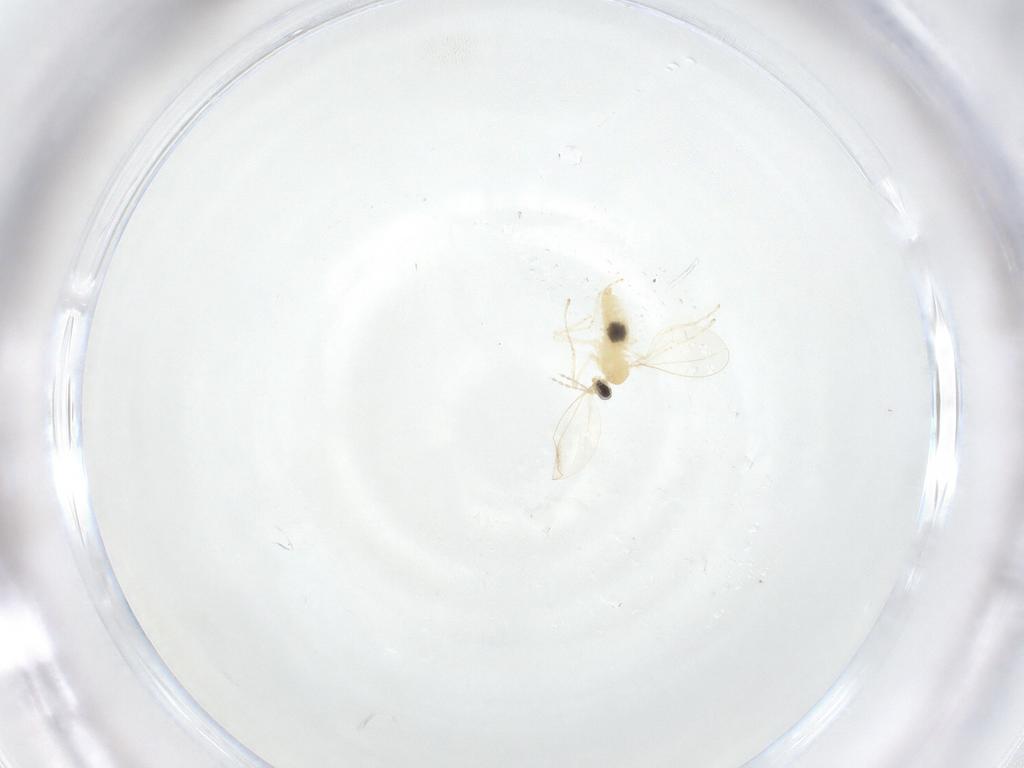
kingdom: Animalia
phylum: Arthropoda
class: Insecta
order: Diptera
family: Cecidomyiidae
